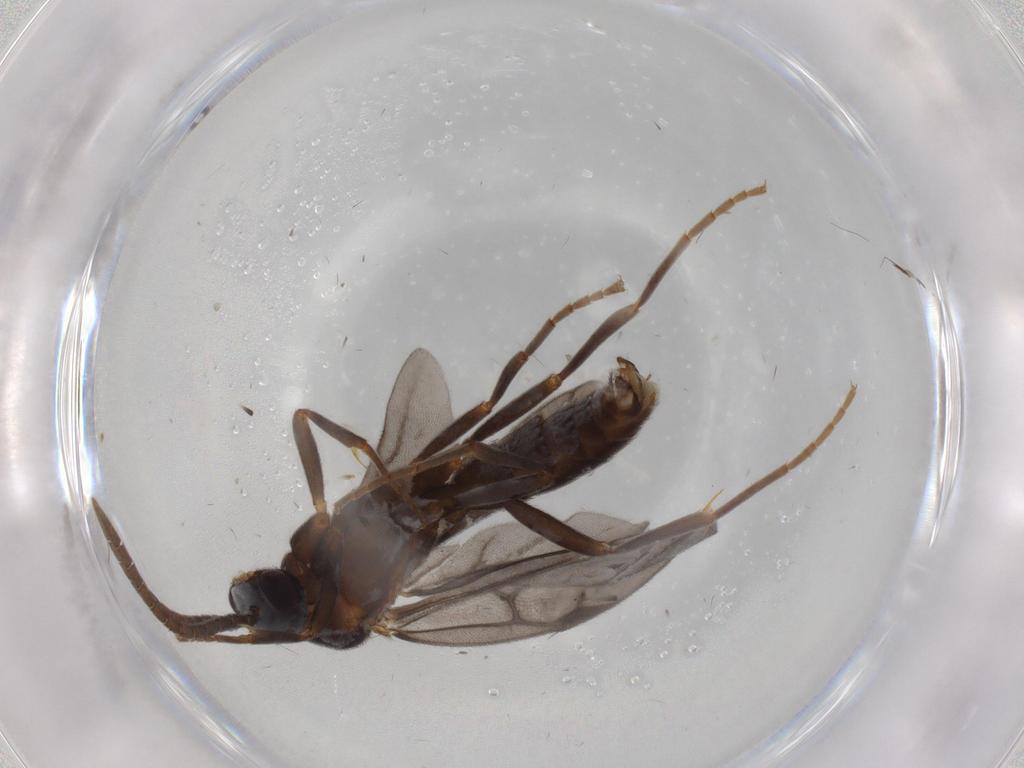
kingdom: Animalia
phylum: Arthropoda
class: Insecta
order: Hymenoptera
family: Formicidae
